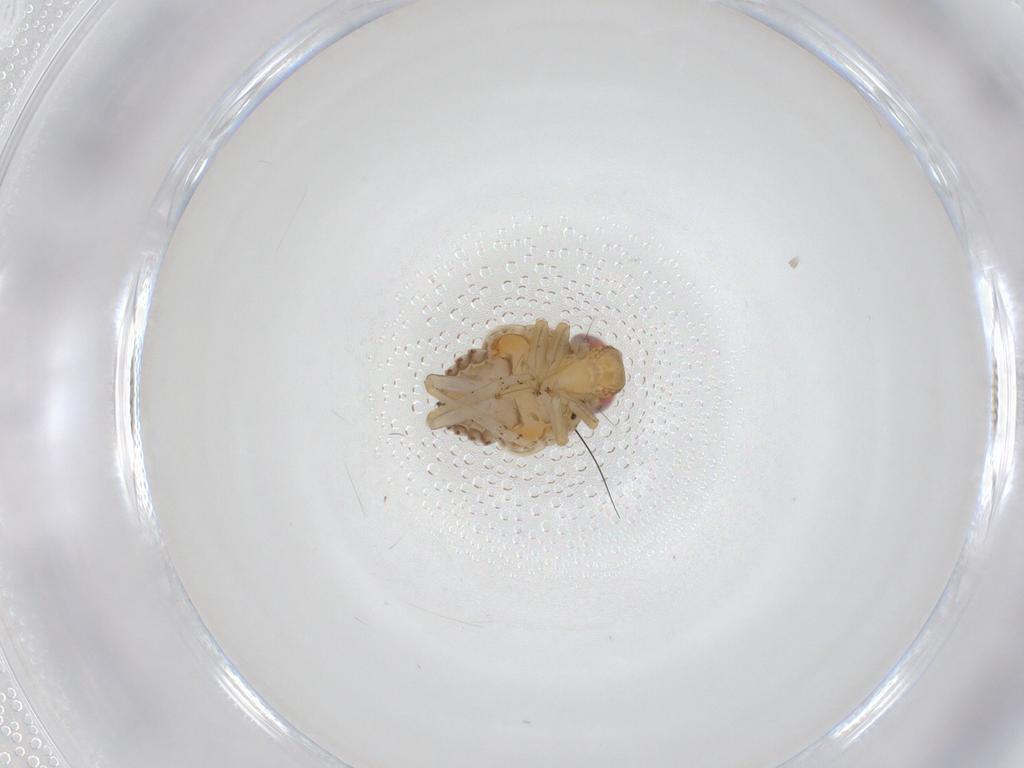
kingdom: Animalia
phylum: Arthropoda
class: Insecta
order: Hemiptera
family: Issidae
